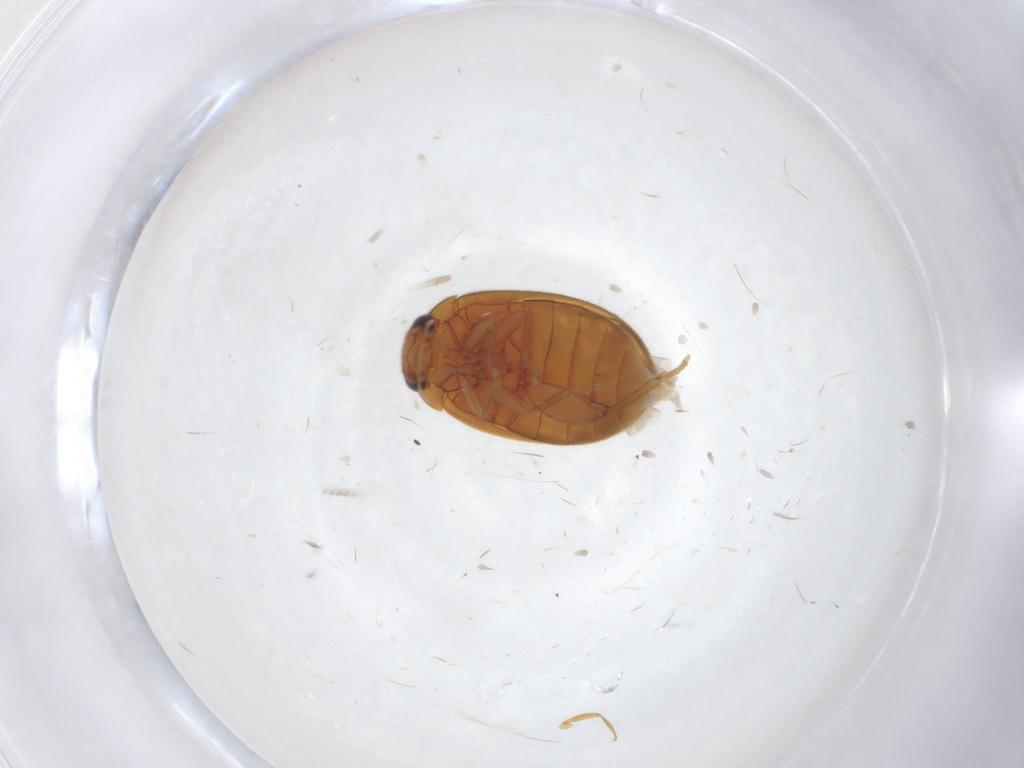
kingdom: Animalia
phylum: Arthropoda
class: Insecta
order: Coleoptera
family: Scirtidae
